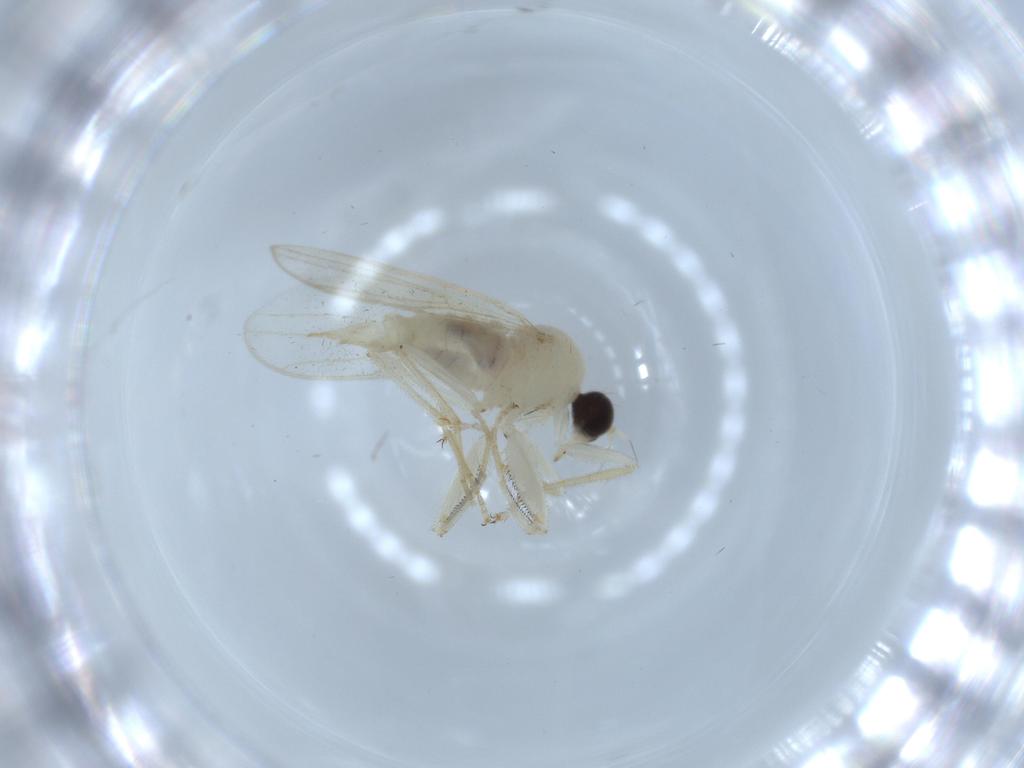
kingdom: Animalia
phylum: Arthropoda
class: Insecta
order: Diptera
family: Hybotidae
